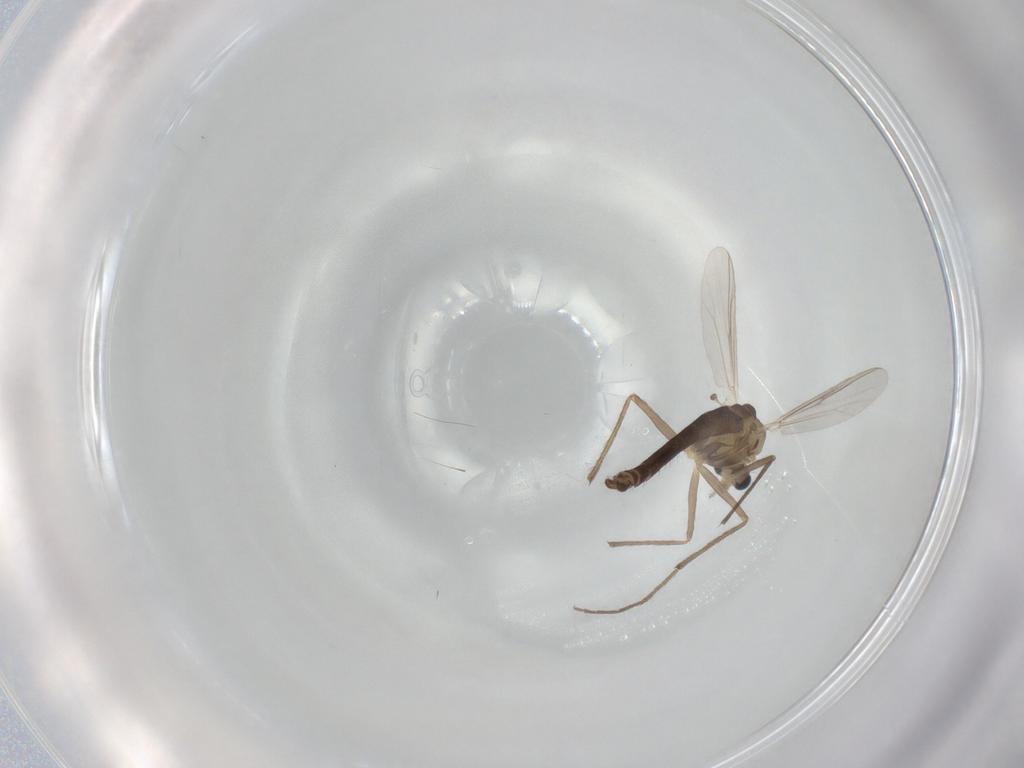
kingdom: Animalia
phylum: Arthropoda
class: Insecta
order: Diptera
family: Chironomidae
